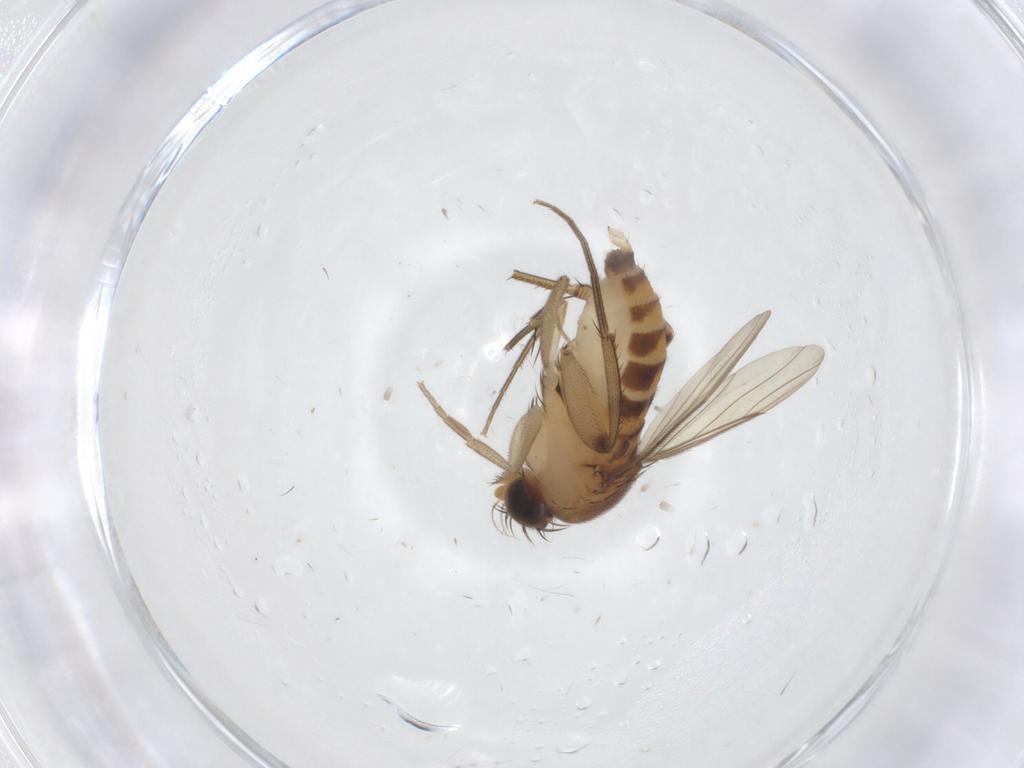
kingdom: Animalia
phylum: Arthropoda
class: Insecta
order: Diptera
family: Phoridae
